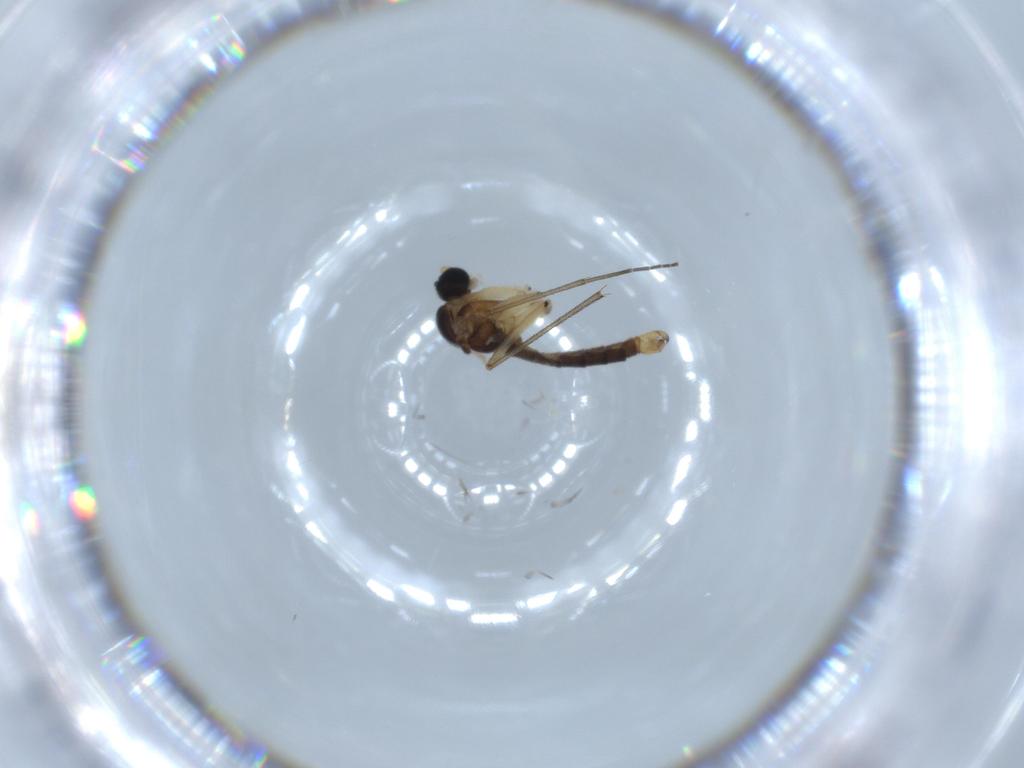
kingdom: Animalia
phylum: Arthropoda
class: Insecta
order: Diptera
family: Sciaridae
